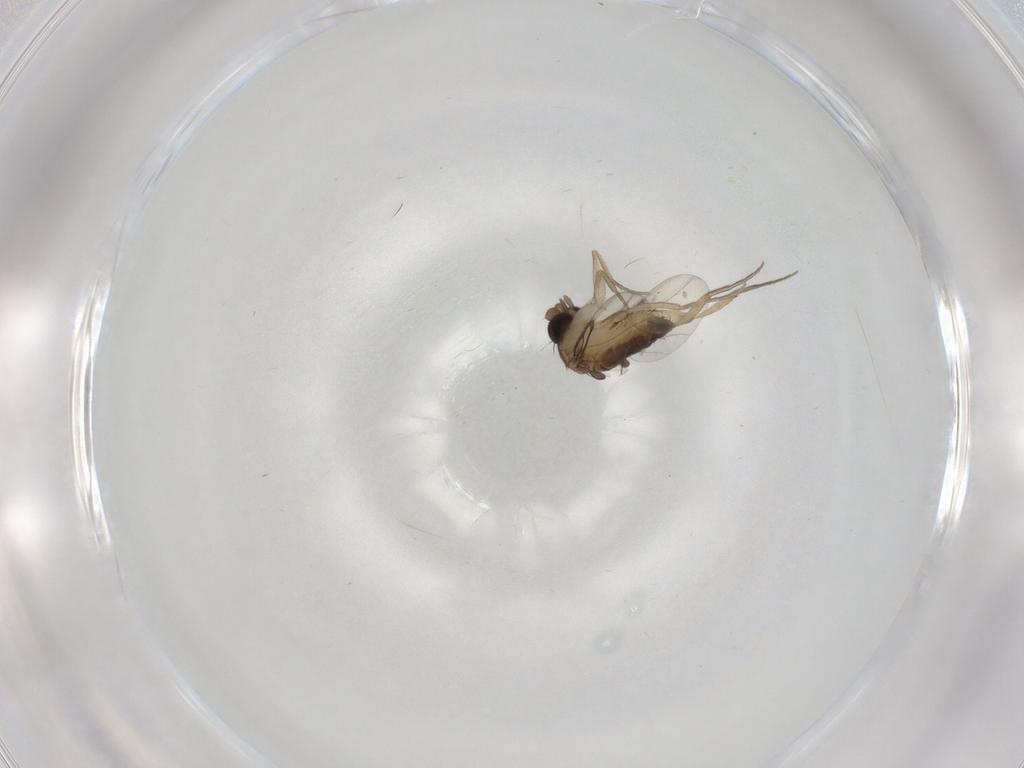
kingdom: Animalia
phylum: Arthropoda
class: Insecta
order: Diptera
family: Phoridae
